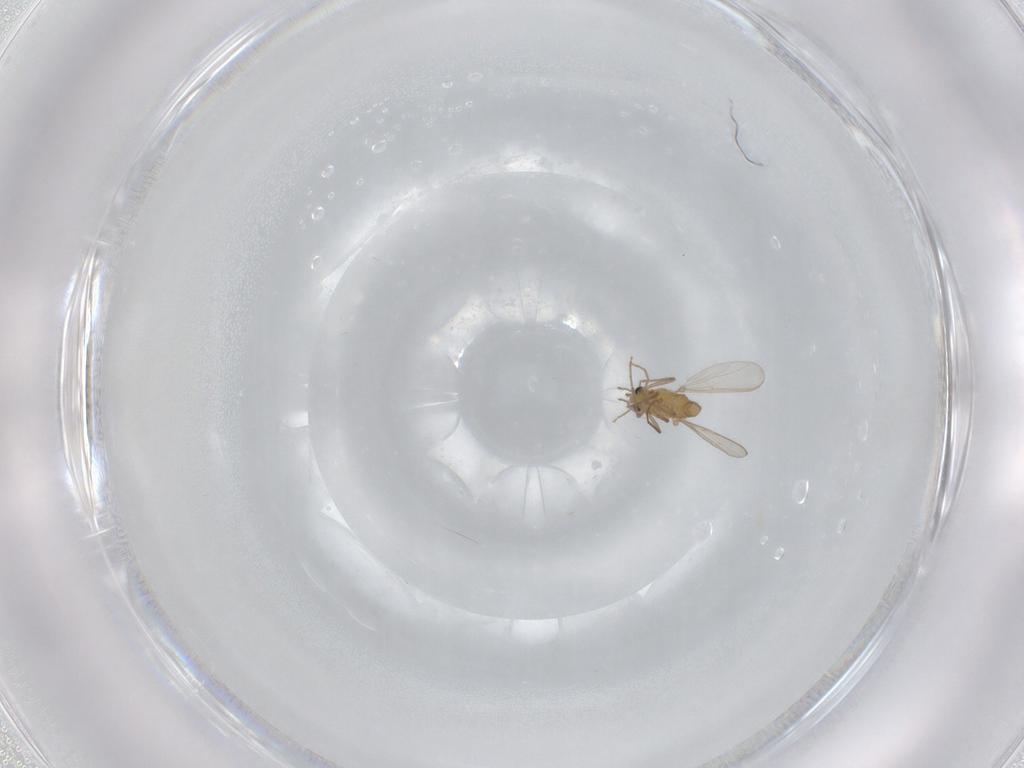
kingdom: Animalia
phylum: Arthropoda
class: Insecta
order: Diptera
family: Chironomidae
